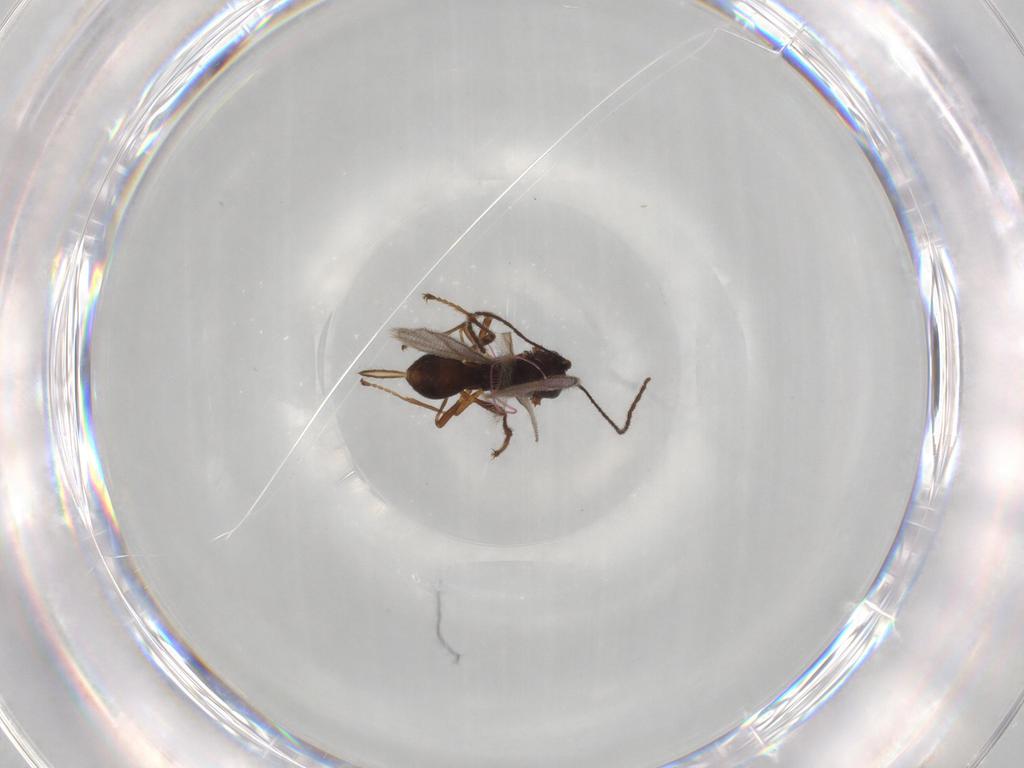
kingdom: Animalia
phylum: Arthropoda
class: Insecta
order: Hymenoptera
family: Braconidae
